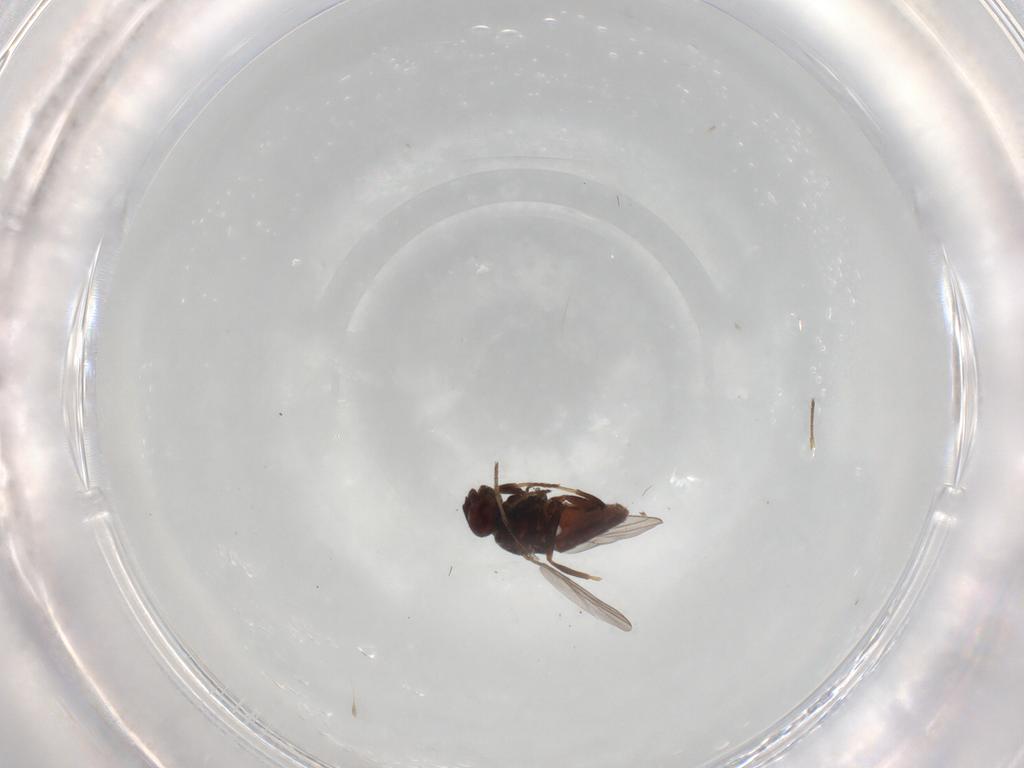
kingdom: Animalia
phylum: Arthropoda
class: Insecta
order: Diptera
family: Chloropidae
